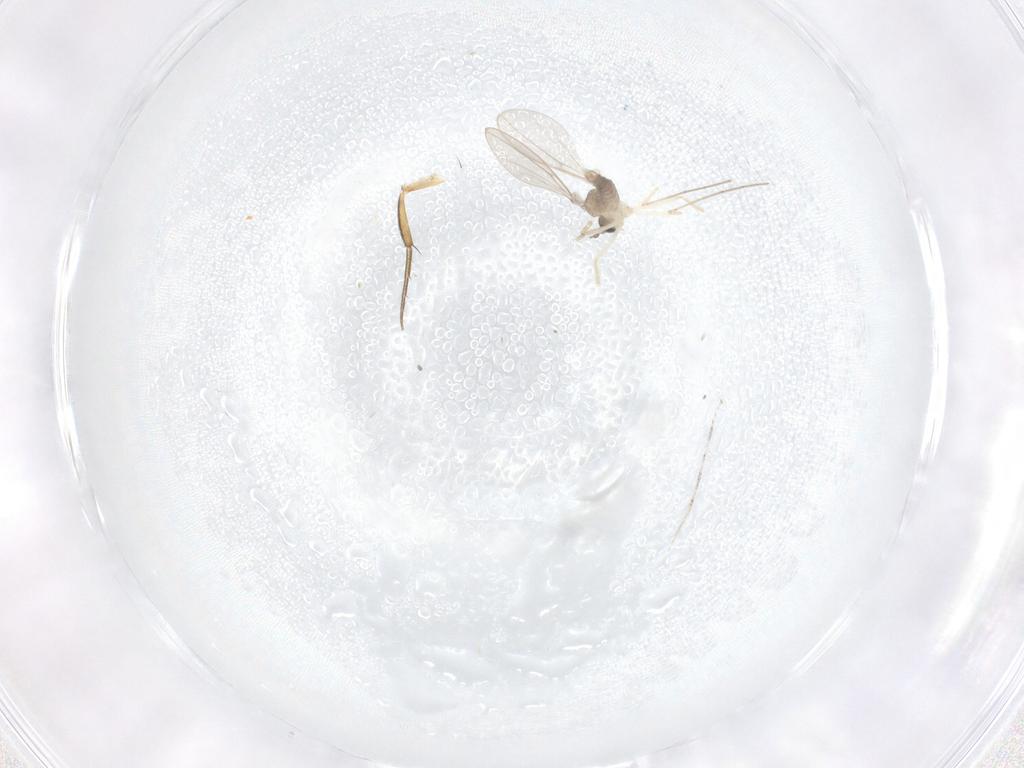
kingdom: Animalia
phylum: Arthropoda
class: Insecta
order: Diptera
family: Cecidomyiidae
